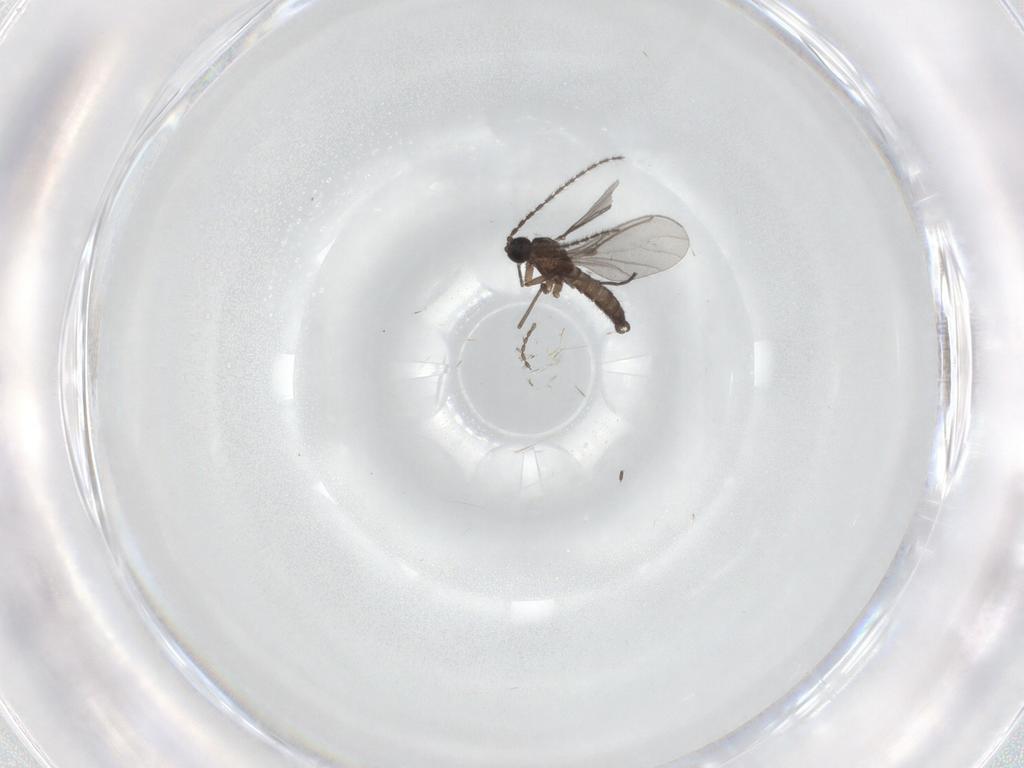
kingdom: Animalia
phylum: Arthropoda
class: Insecta
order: Diptera
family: Sciaridae
